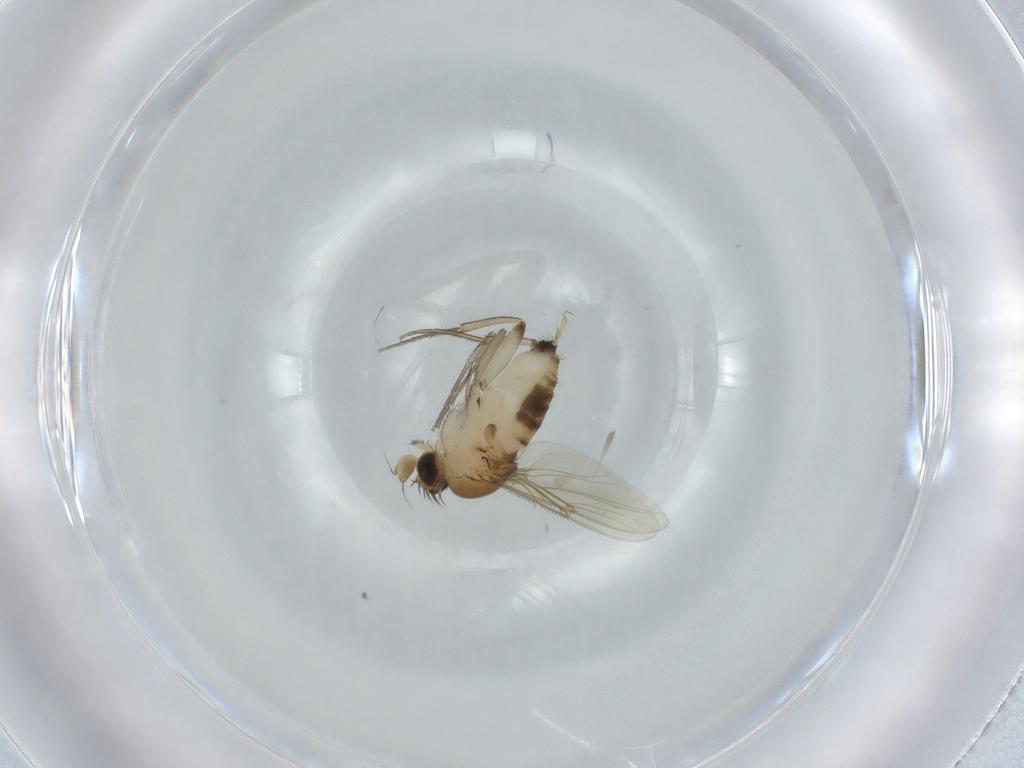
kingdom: Animalia
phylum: Arthropoda
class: Insecta
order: Diptera
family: Phoridae
